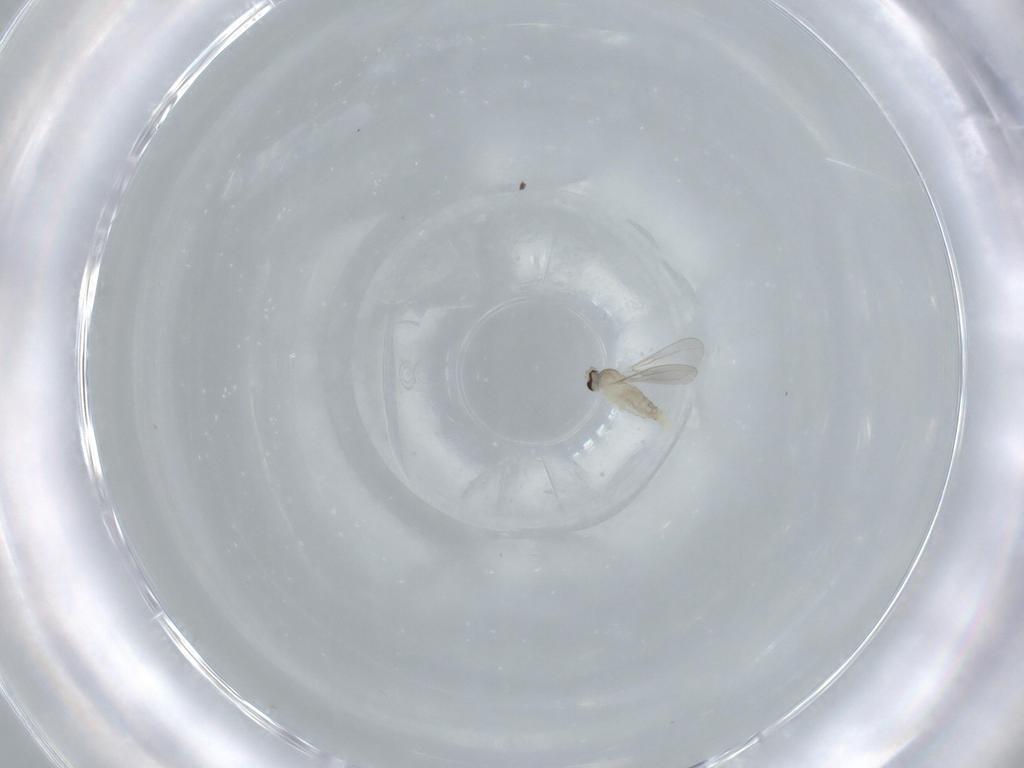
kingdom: Animalia
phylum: Arthropoda
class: Insecta
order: Diptera
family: Cecidomyiidae
